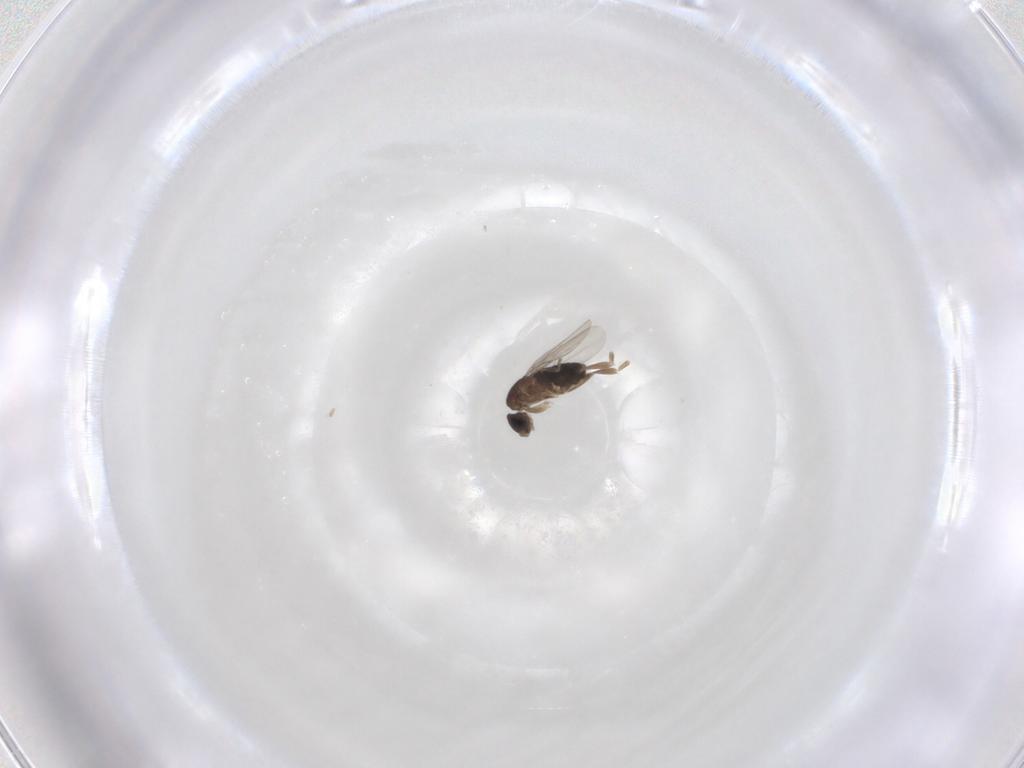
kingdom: Animalia
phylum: Arthropoda
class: Insecta
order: Diptera
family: Phoridae
